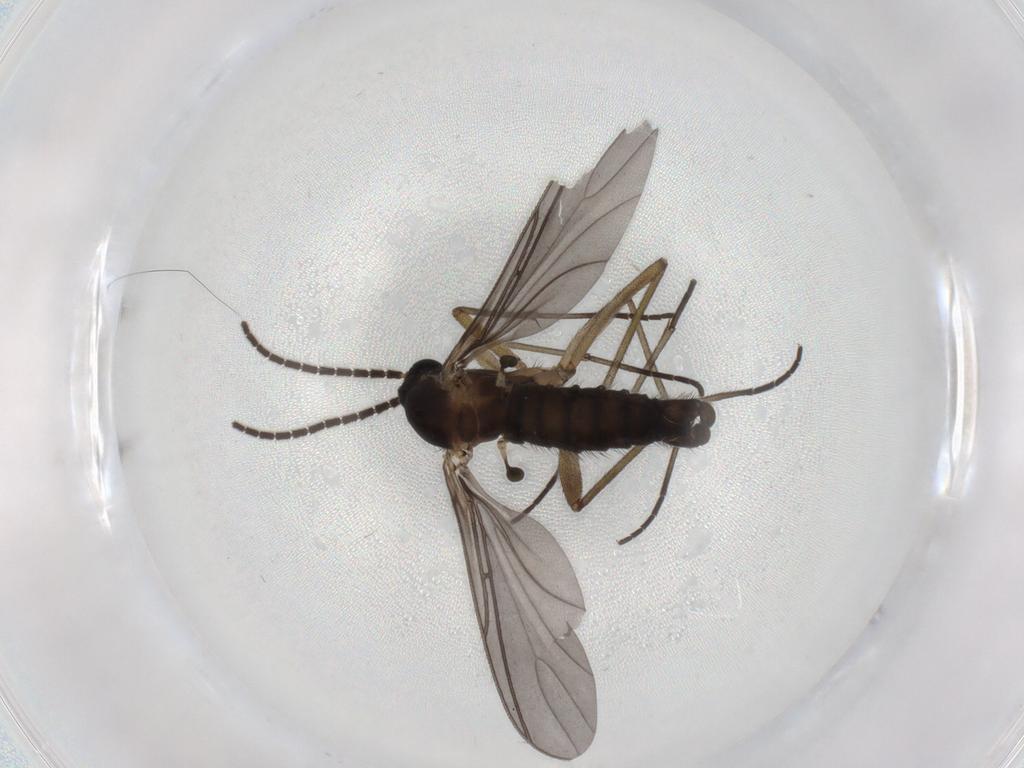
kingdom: Animalia
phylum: Arthropoda
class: Insecta
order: Diptera
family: Sciaridae
